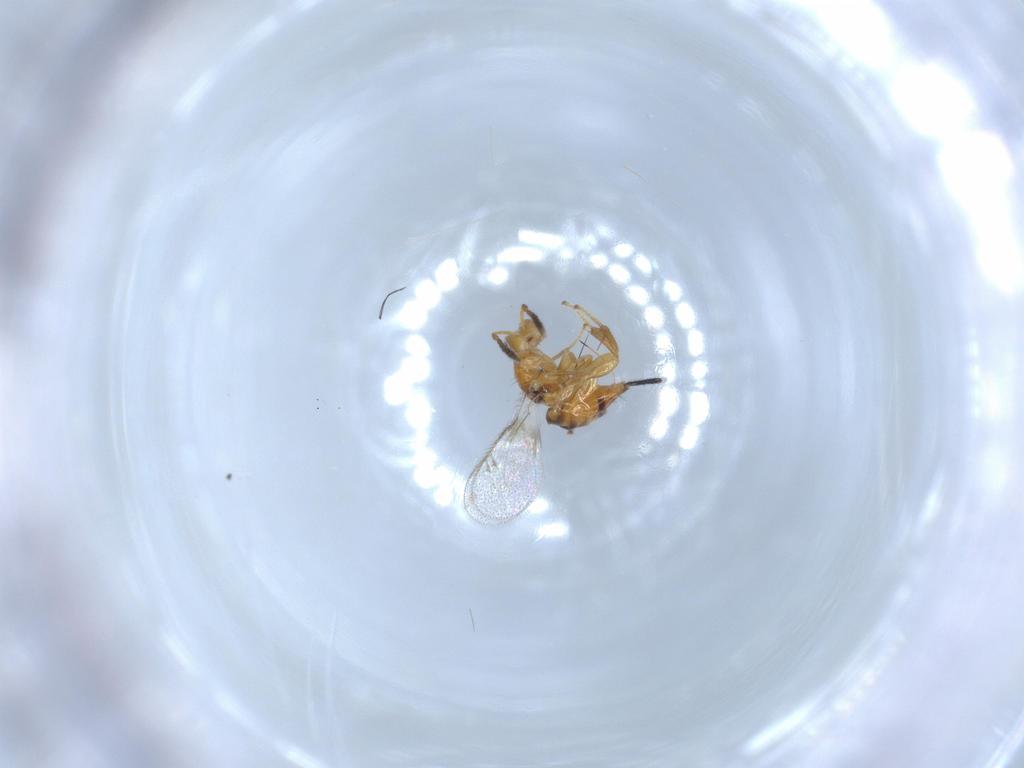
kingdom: Animalia
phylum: Arthropoda
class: Insecta
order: Hymenoptera
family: Torymidae
